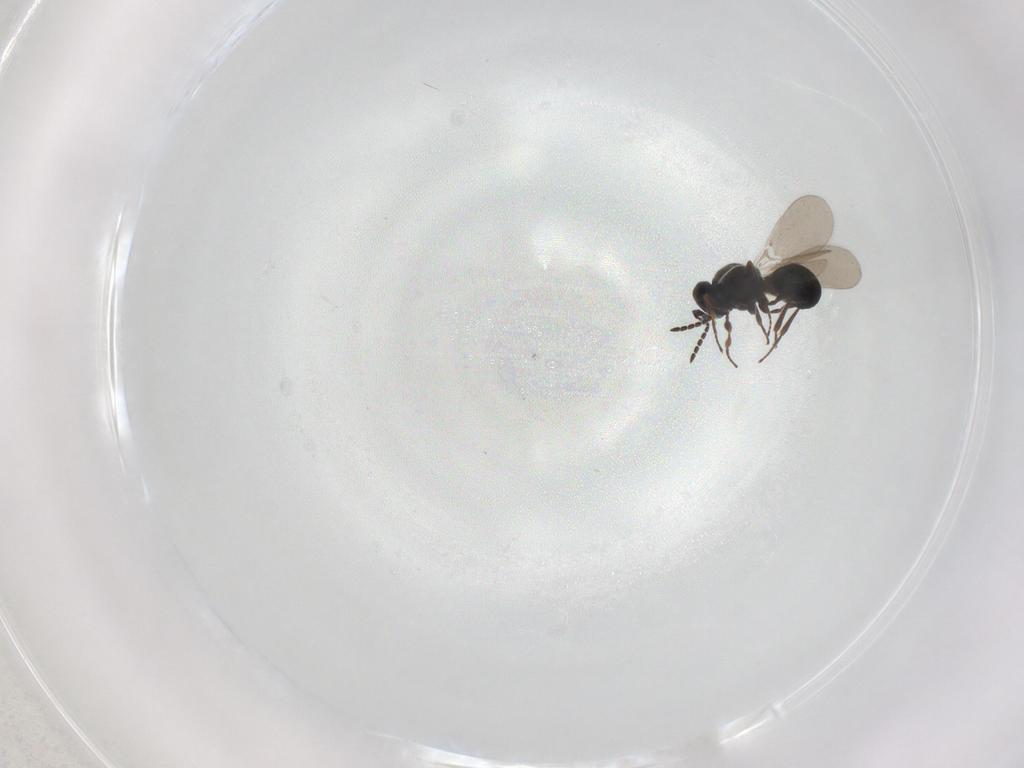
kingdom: Animalia
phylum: Arthropoda
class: Insecta
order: Hymenoptera
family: Platygastridae
